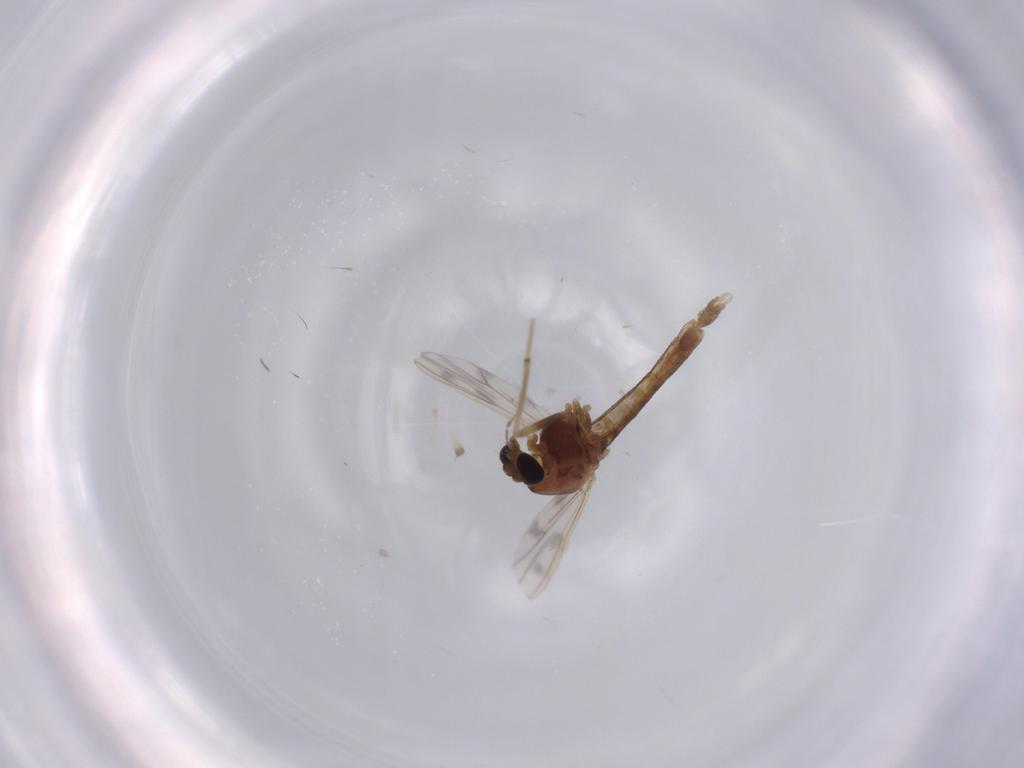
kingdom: Animalia
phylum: Arthropoda
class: Insecta
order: Diptera
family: Chironomidae
